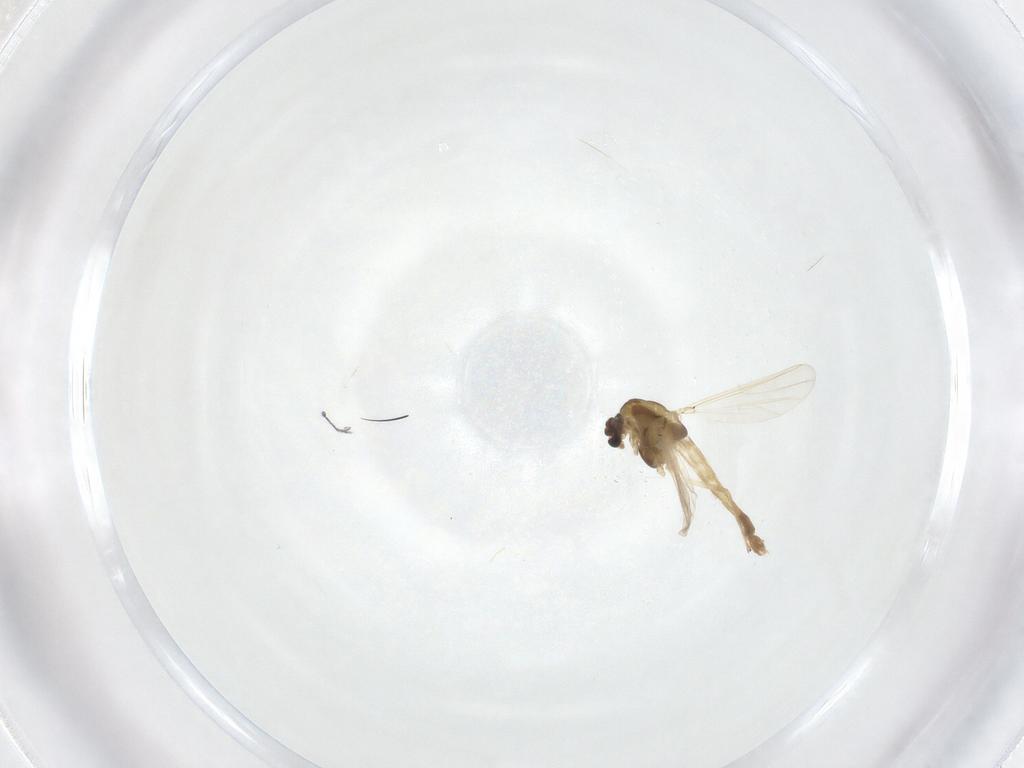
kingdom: Animalia
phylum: Arthropoda
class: Insecta
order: Diptera
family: Chironomidae
